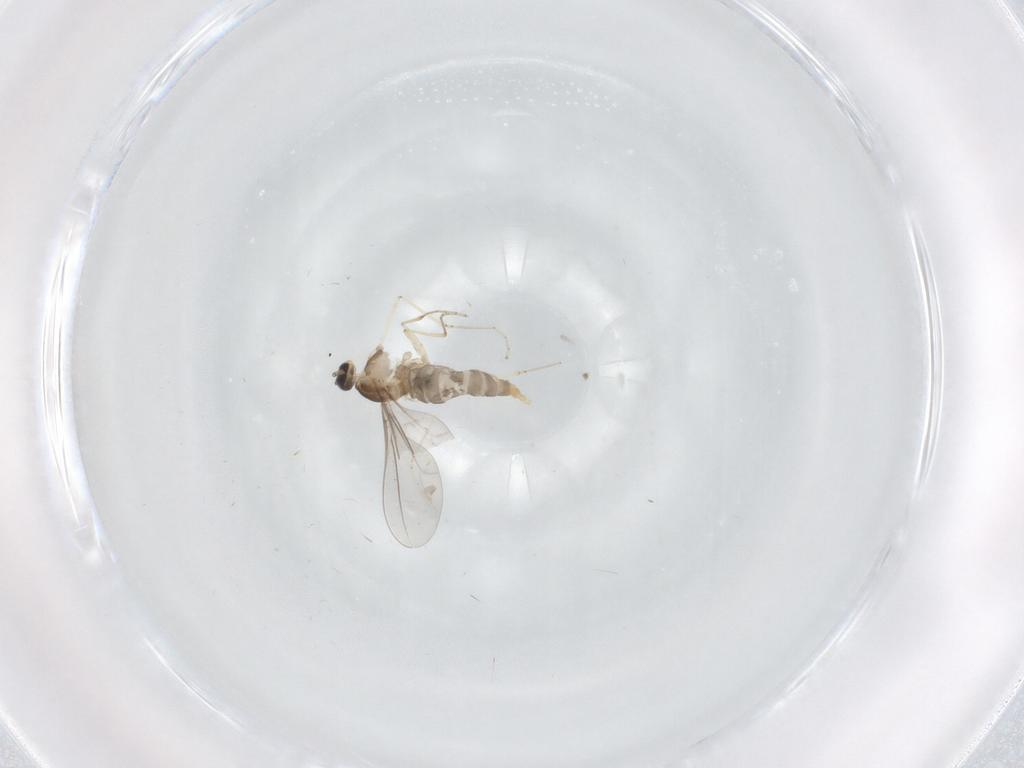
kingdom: Animalia
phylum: Arthropoda
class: Insecta
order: Diptera
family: Cecidomyiidae
